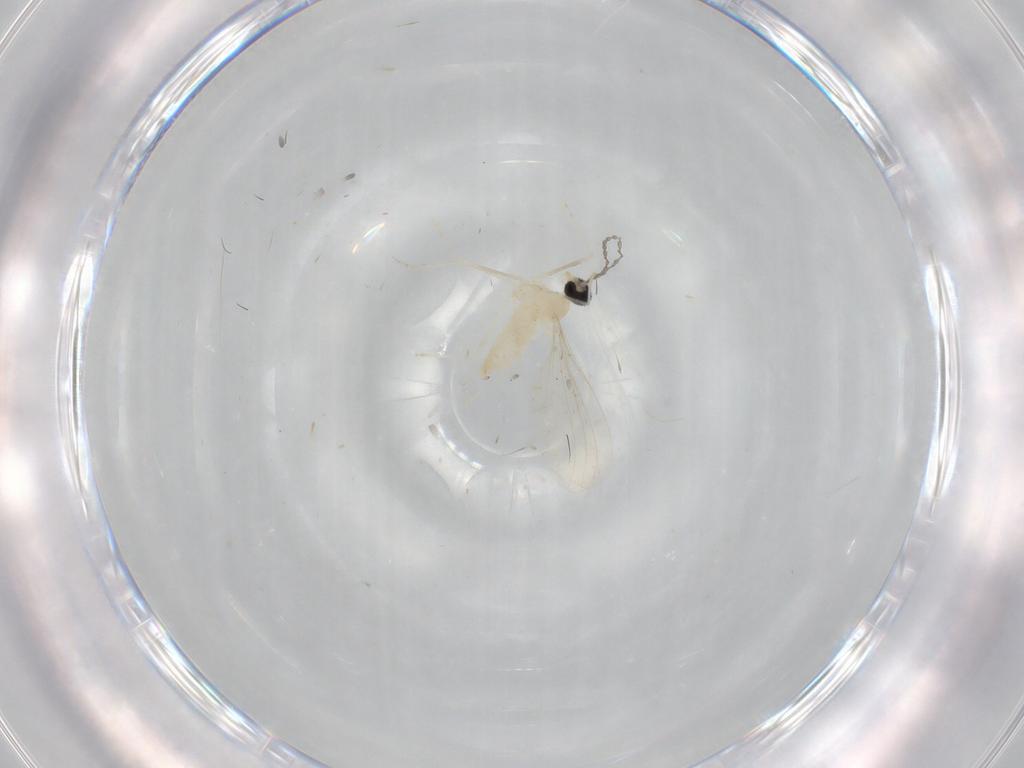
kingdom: Animalia
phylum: Arthropoda
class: Insecta
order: Diptera
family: Cecidomyiidae
